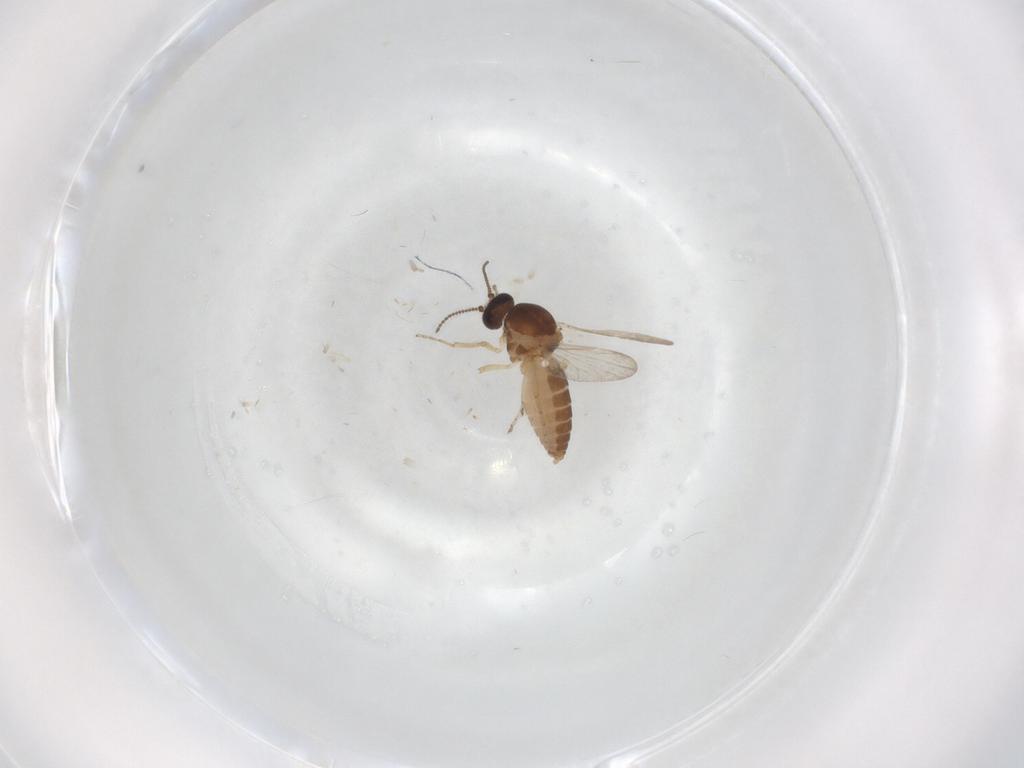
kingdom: Animalia
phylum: Arthropoda
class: Insecta
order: Diptera
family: Ceratopogonidae
